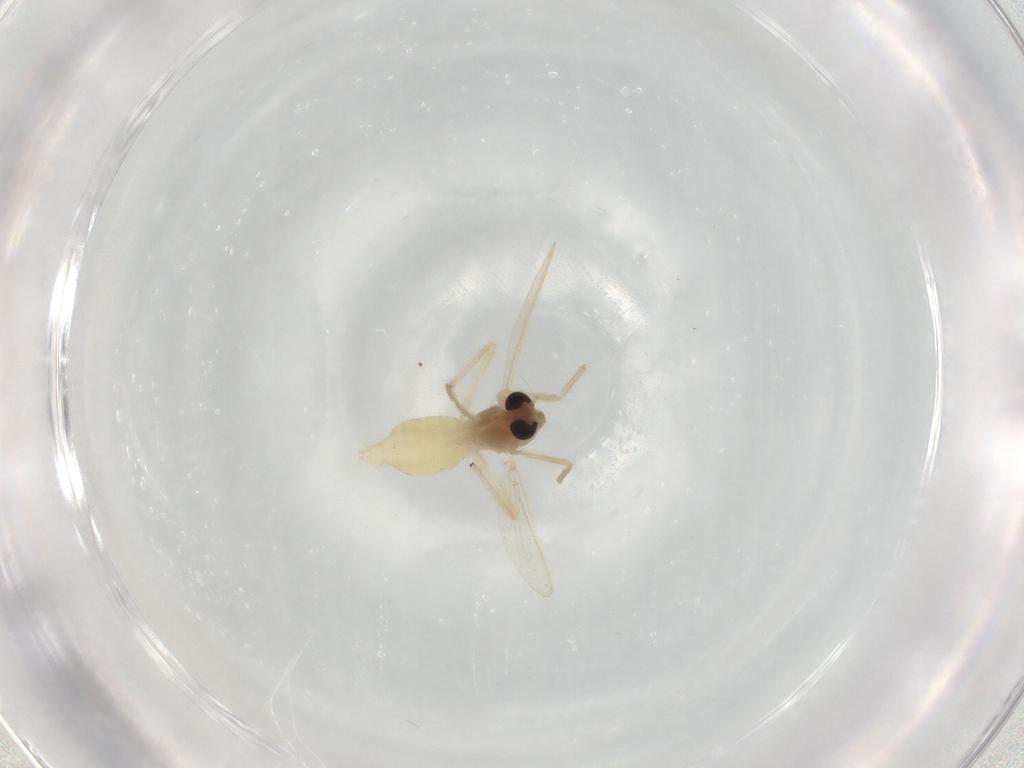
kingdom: Animalia
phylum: Arthropoda
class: Insecta
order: Diptera
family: Chironomidae
